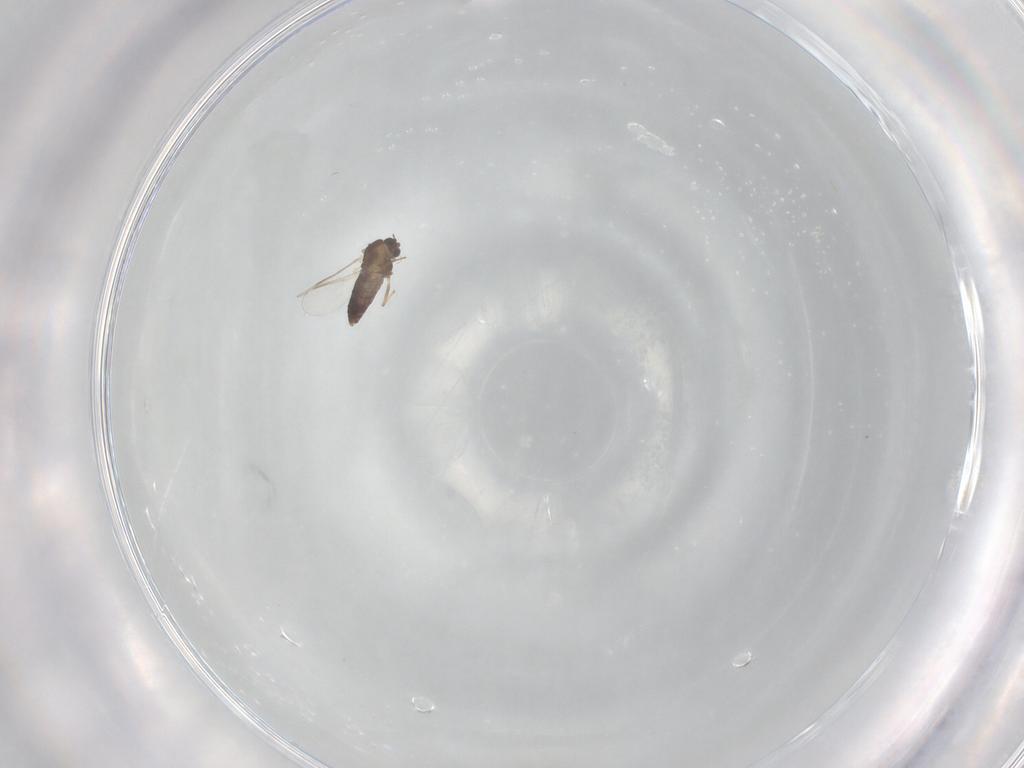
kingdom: Animalia
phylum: Arthropoda
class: Insecta
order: Diptera
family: Chironomidae
